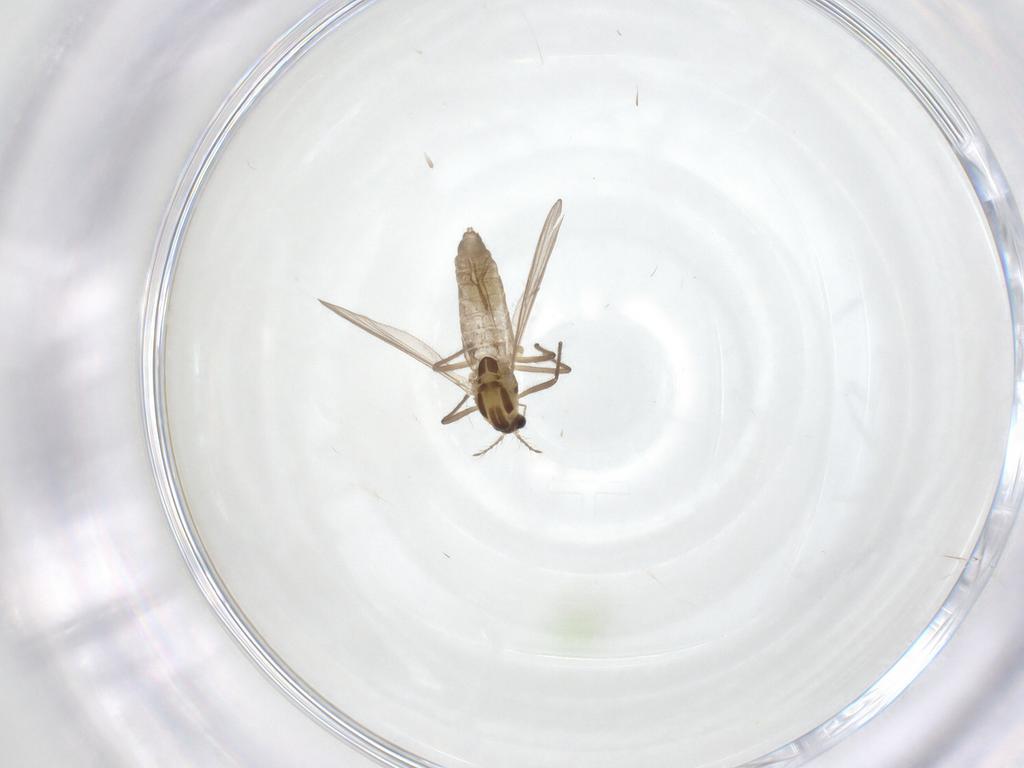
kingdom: Animalia
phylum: Arthropoda
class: Insecta
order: Diptera
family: Chironomidae
